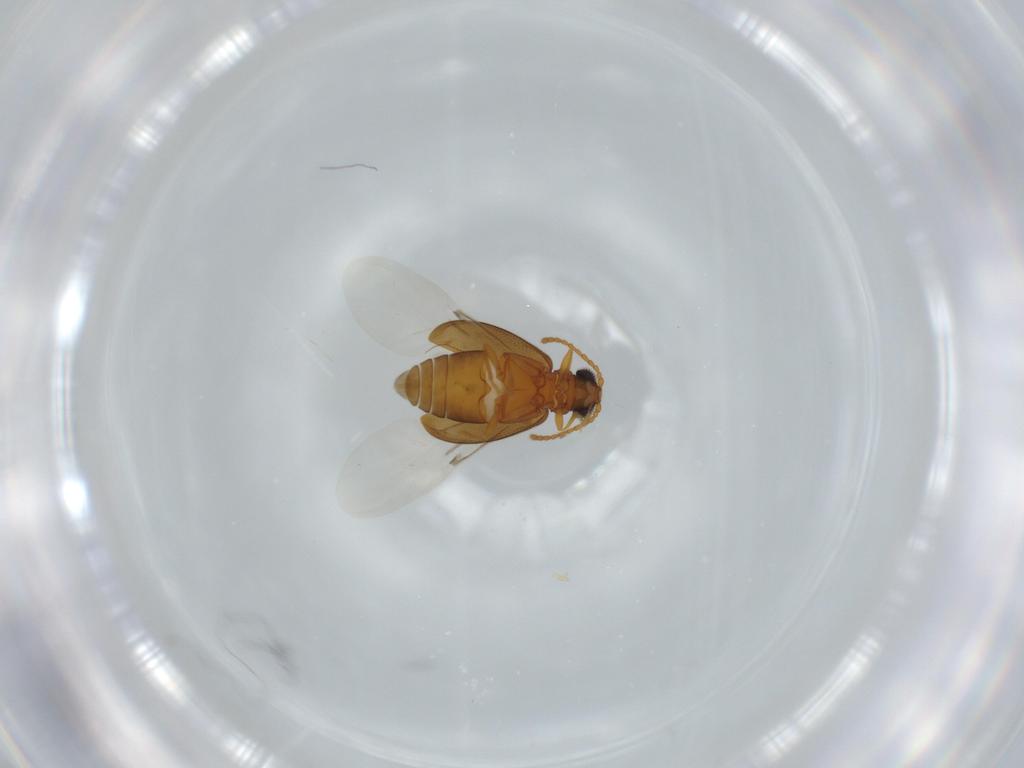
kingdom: Animalia
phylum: Arthropoda
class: Insecta
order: Coleoptera
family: Aderidae
